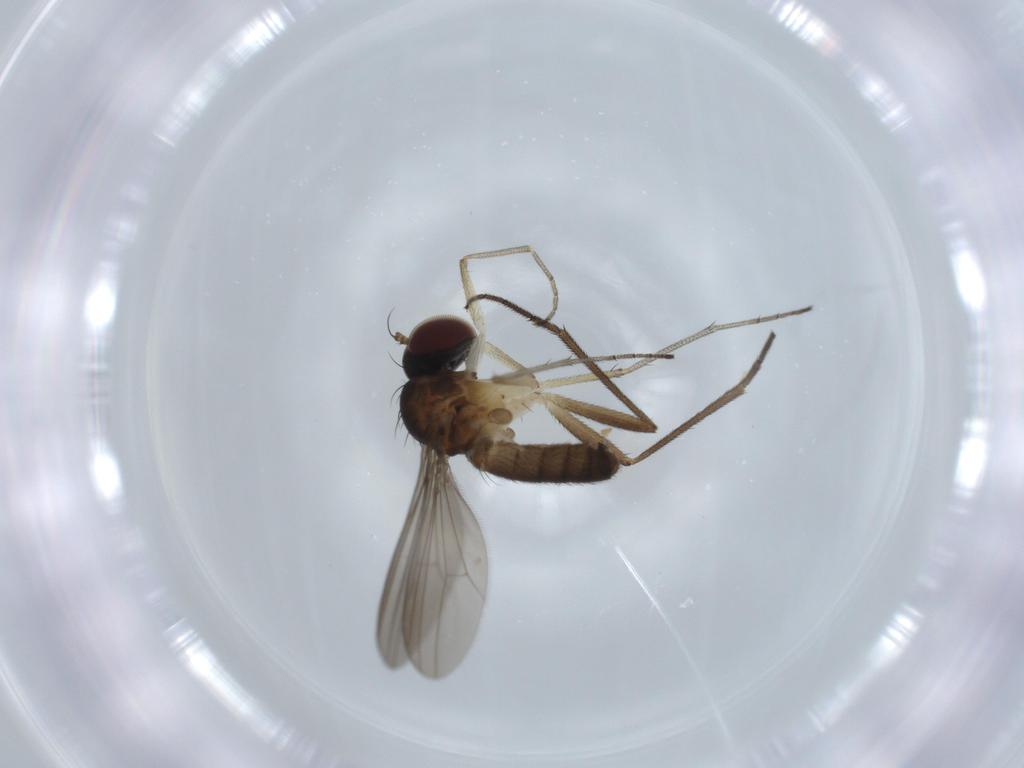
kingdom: Animalia
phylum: Arthropoda
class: Insecta
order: Diptera
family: Dolichopodidae
